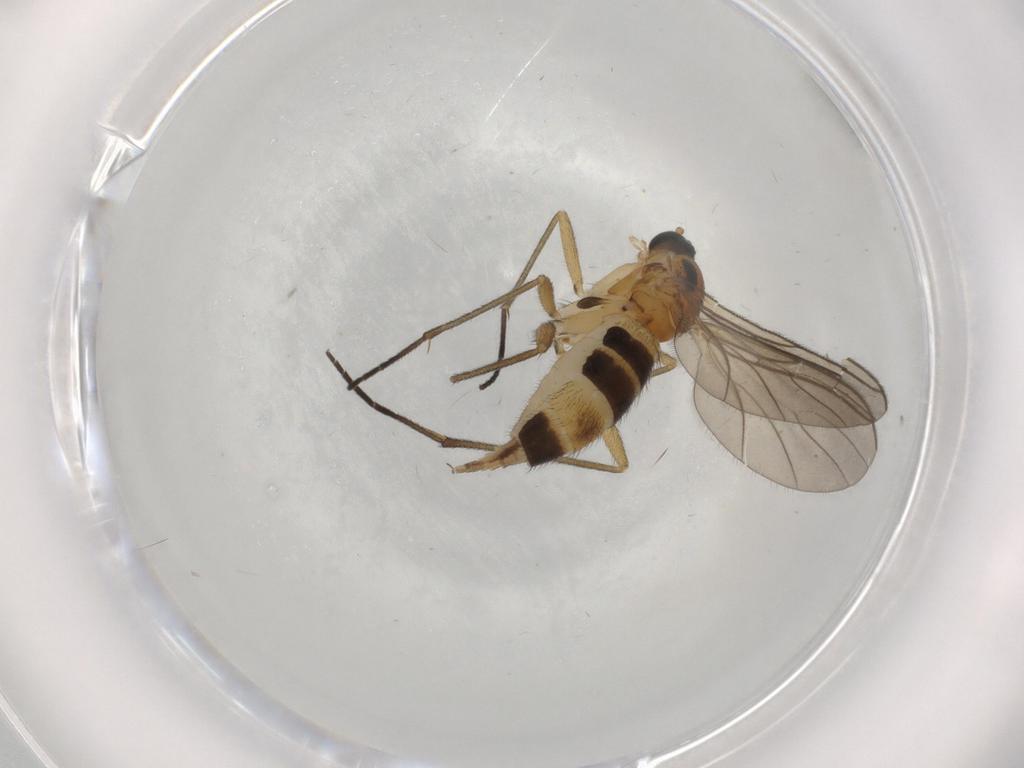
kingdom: Animalia
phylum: Arthropoda
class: Insecta
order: Diptera
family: Sciaridae
